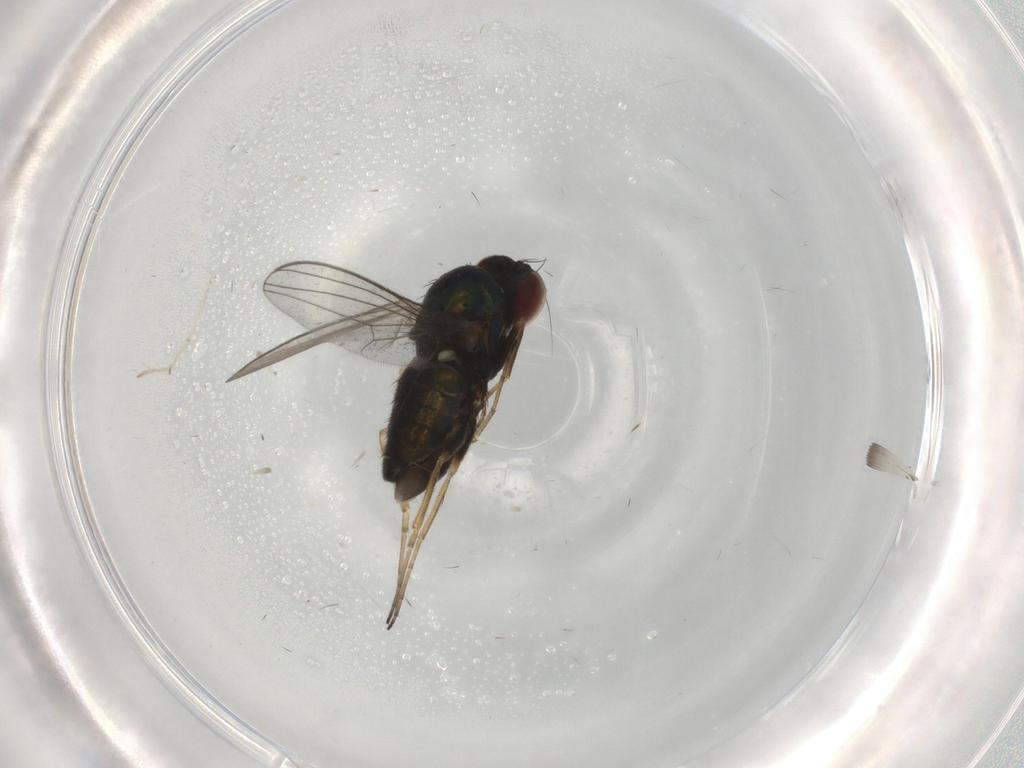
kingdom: Animalia
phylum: Arthropoda
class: Insecta
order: Diptera
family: Dolichopodidae
